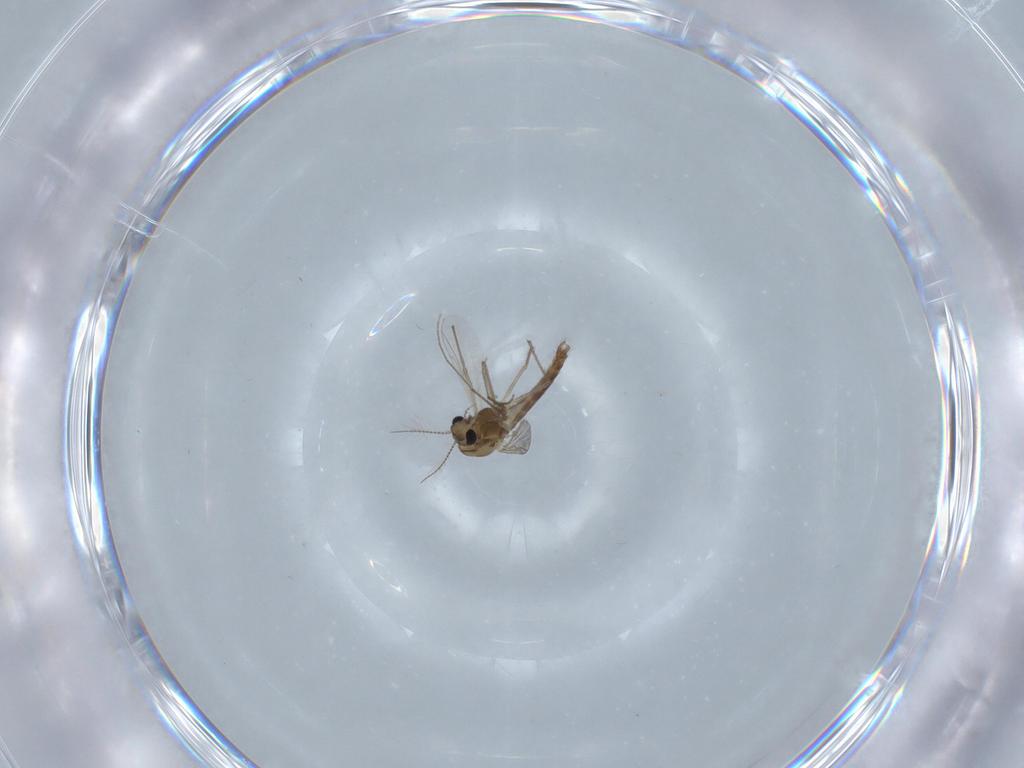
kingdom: Animalia
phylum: Arthropoda
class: Insecta
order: Diptera
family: Chironomidae
